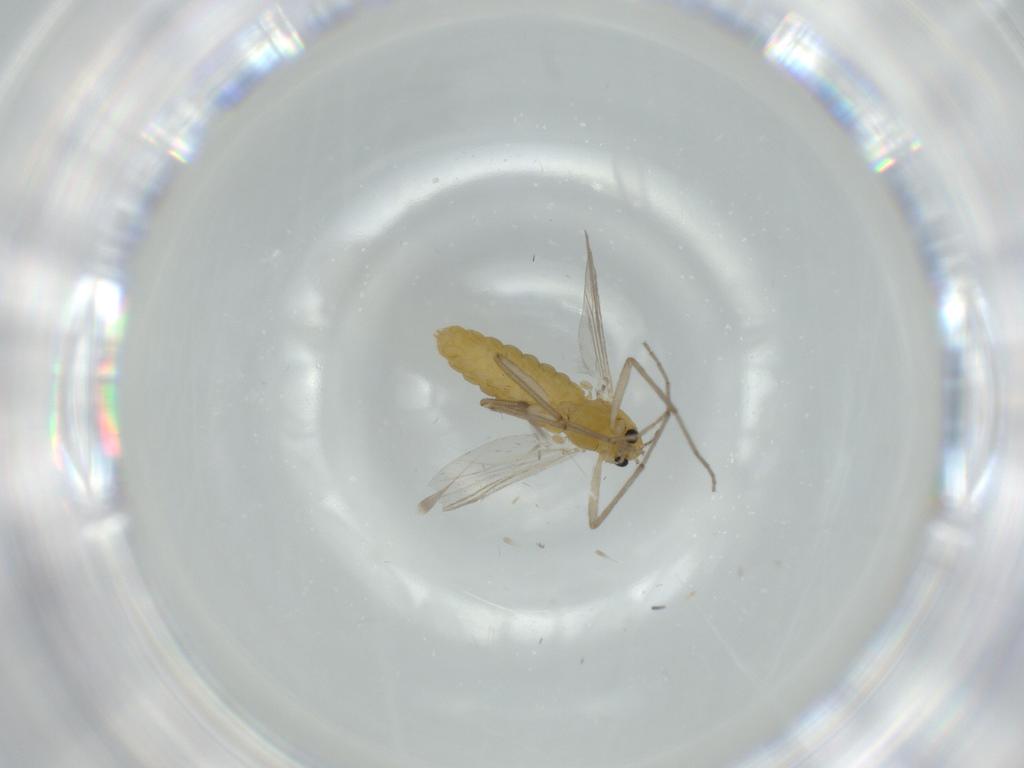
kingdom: Animalia
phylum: Arthropoda
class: Insecta
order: Diptera
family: Chironomidae
